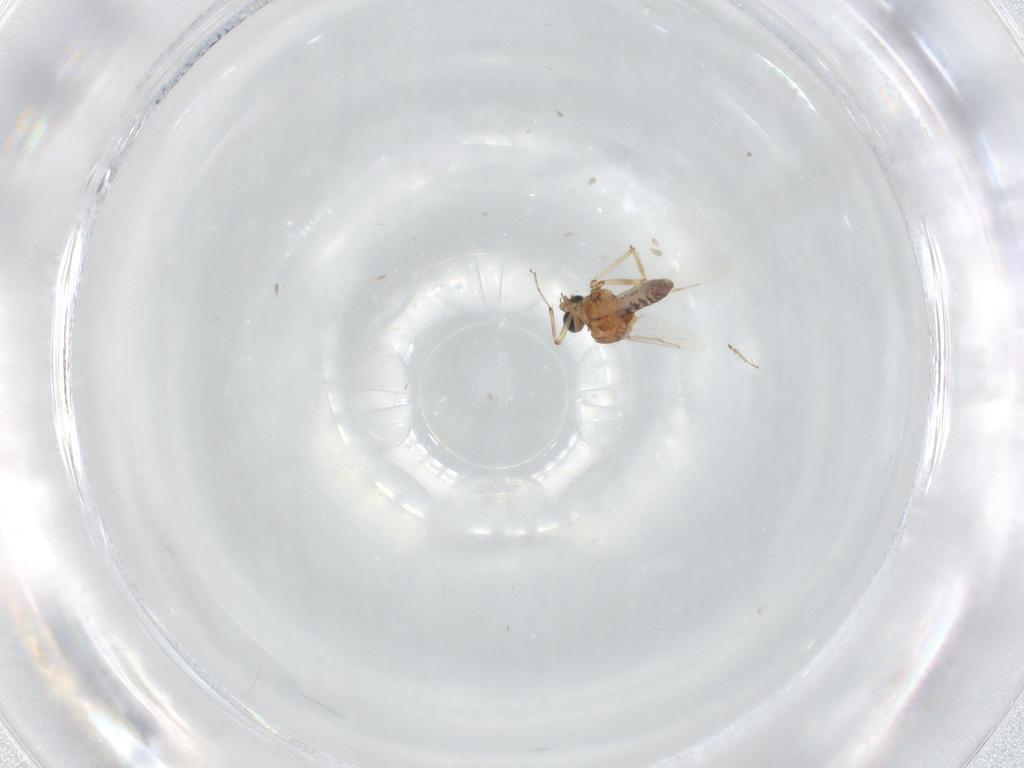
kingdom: Animalia
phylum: Arthropoda
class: Insecta
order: Diptera
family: Ceratopogonidae
